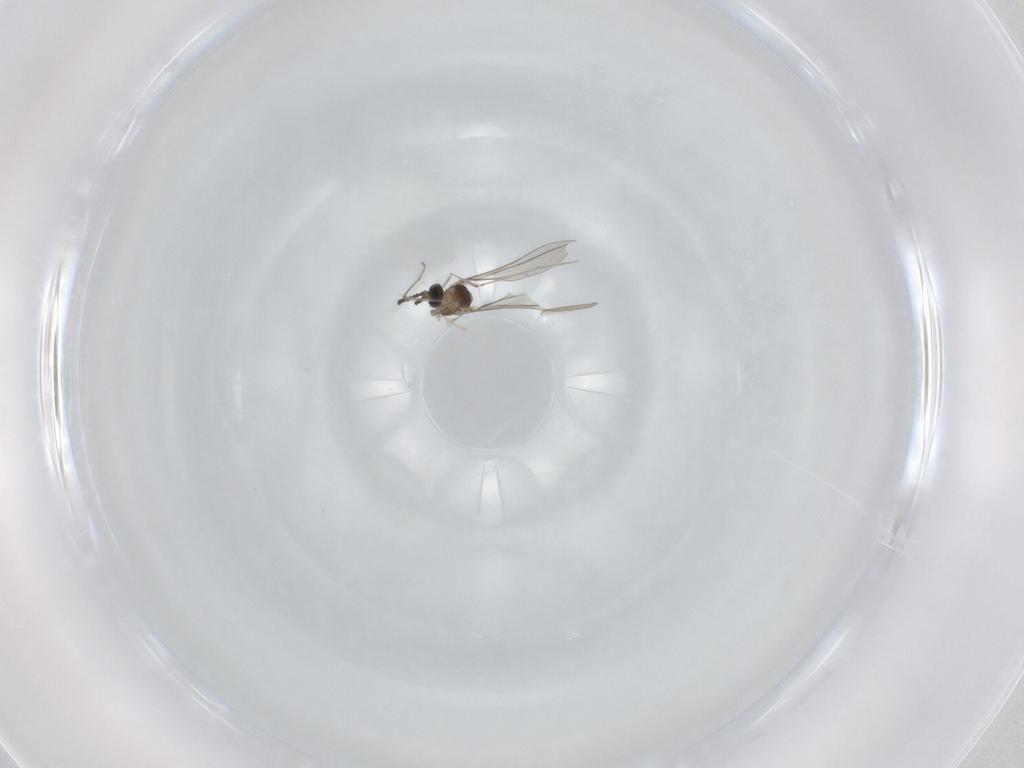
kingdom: Animalia
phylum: Arthropoda
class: Insecta
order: Diptera
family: Cecidomyiidae
